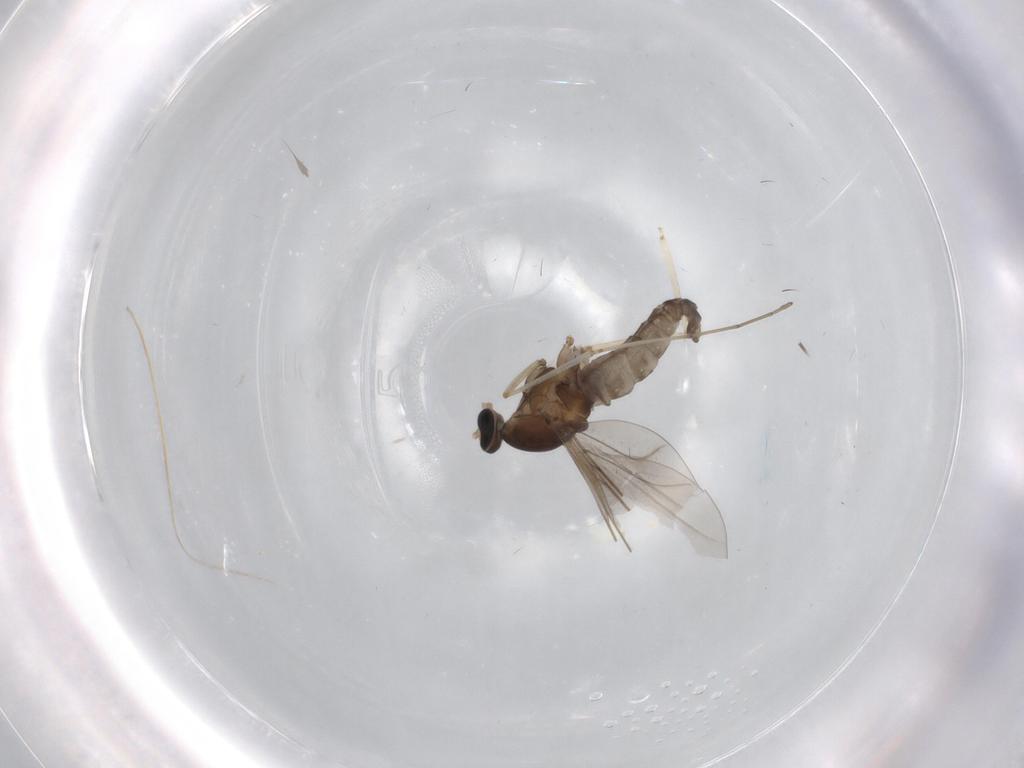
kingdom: Animalia
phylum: Arthropoda
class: Insecta
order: Diptera
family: Cecidomyiidae
